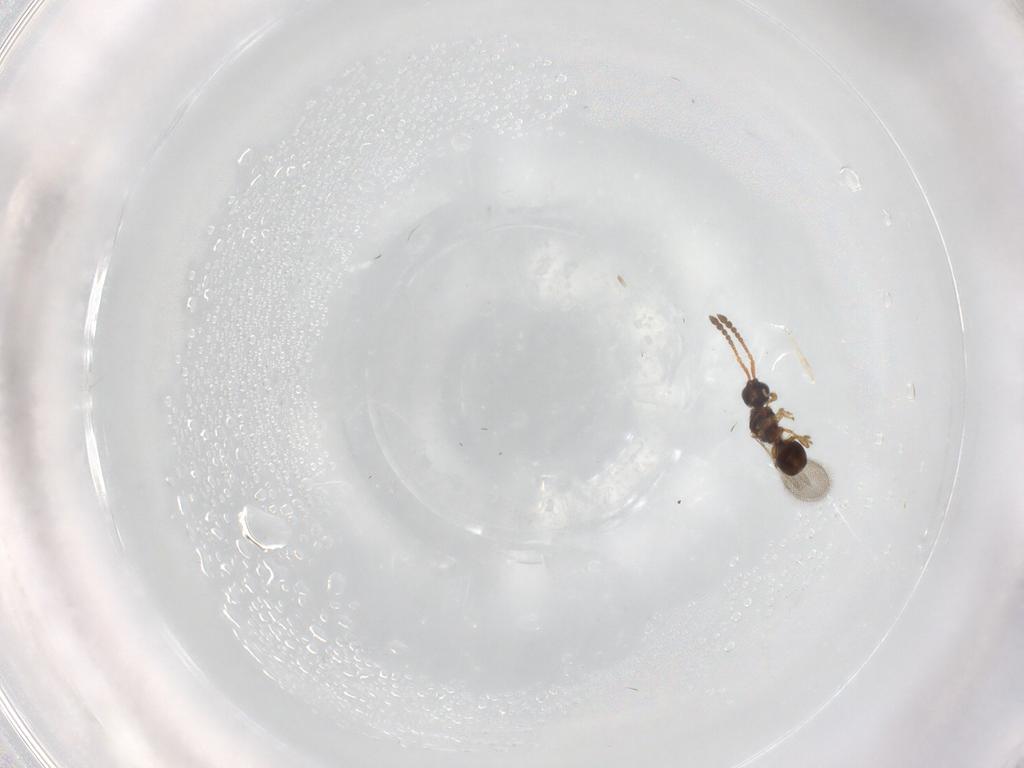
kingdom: Animalia
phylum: Arthropoda
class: Insecta
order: Hymenoptera
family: Diapriidae
